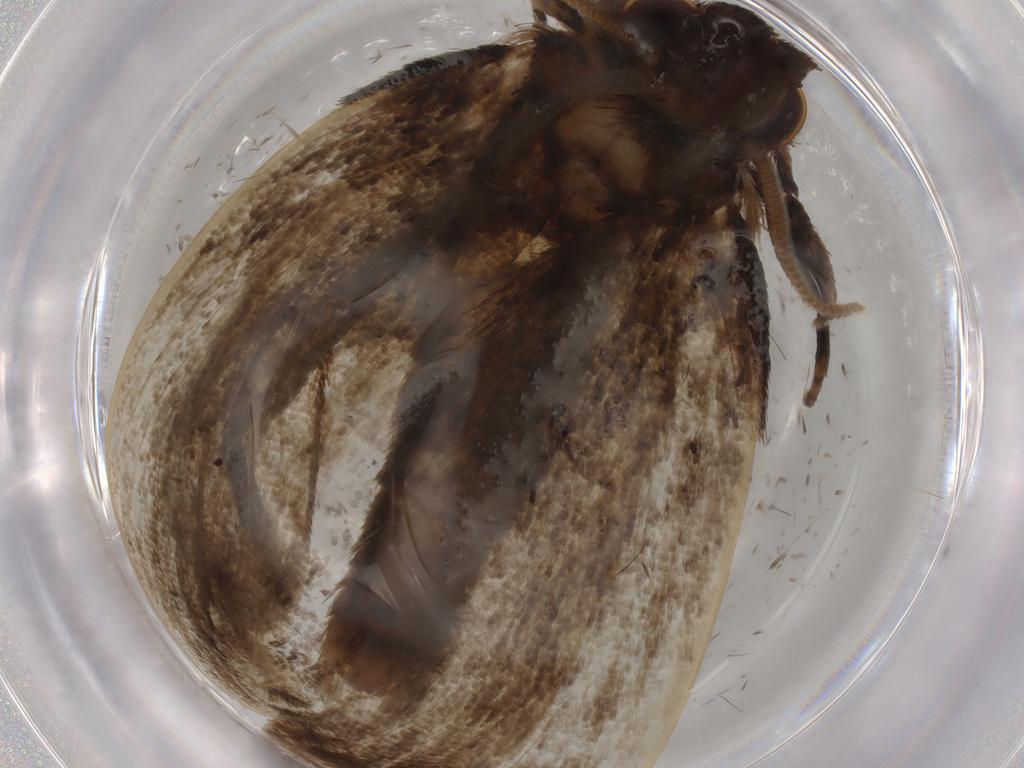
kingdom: Animalia
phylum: Arthropoda
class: Insecta
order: Lepidoptera
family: Tineidae
